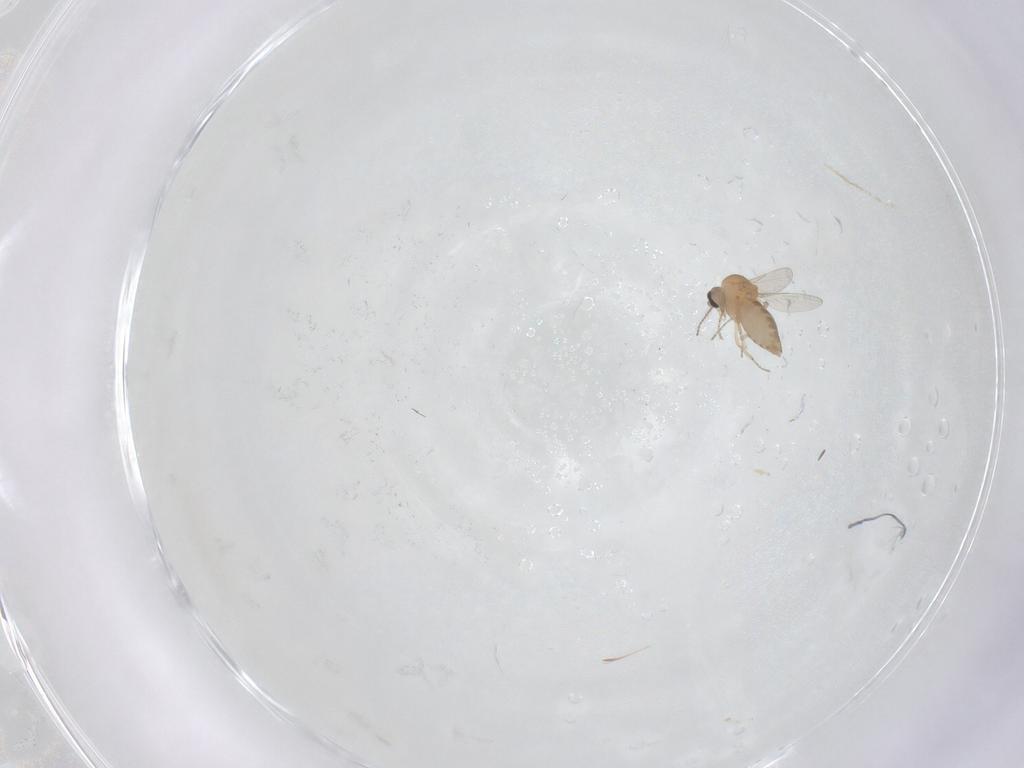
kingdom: Animalia
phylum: Arthropoda
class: Insecta
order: Diptera
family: Ceratopogonidae
